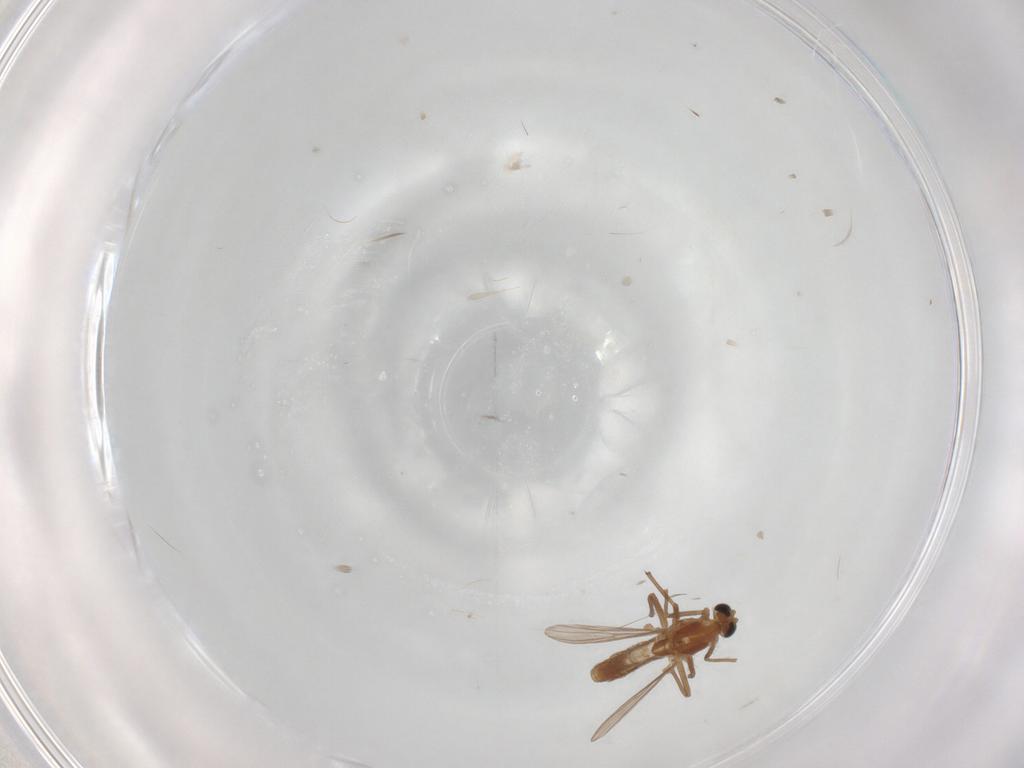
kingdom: Animalia
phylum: Arthropoda
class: Insecta
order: Diptera
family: Chironomidae
